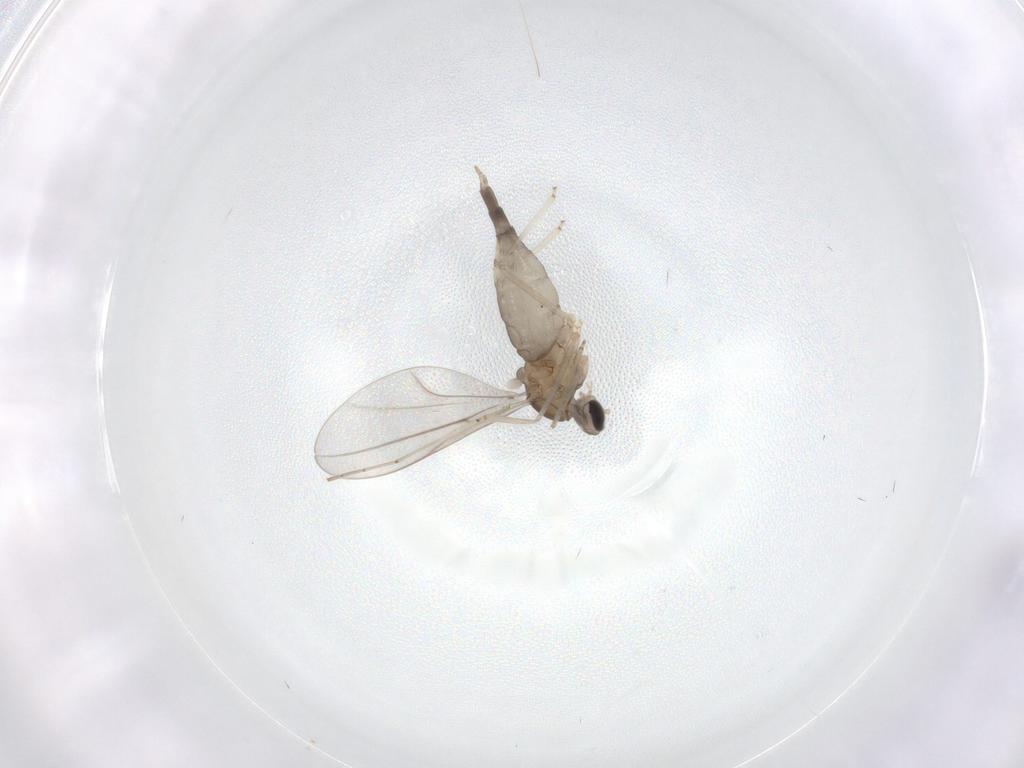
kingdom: Animalia
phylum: Arthropoda
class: Insecta
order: Diptera
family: Cecidomyiidae
